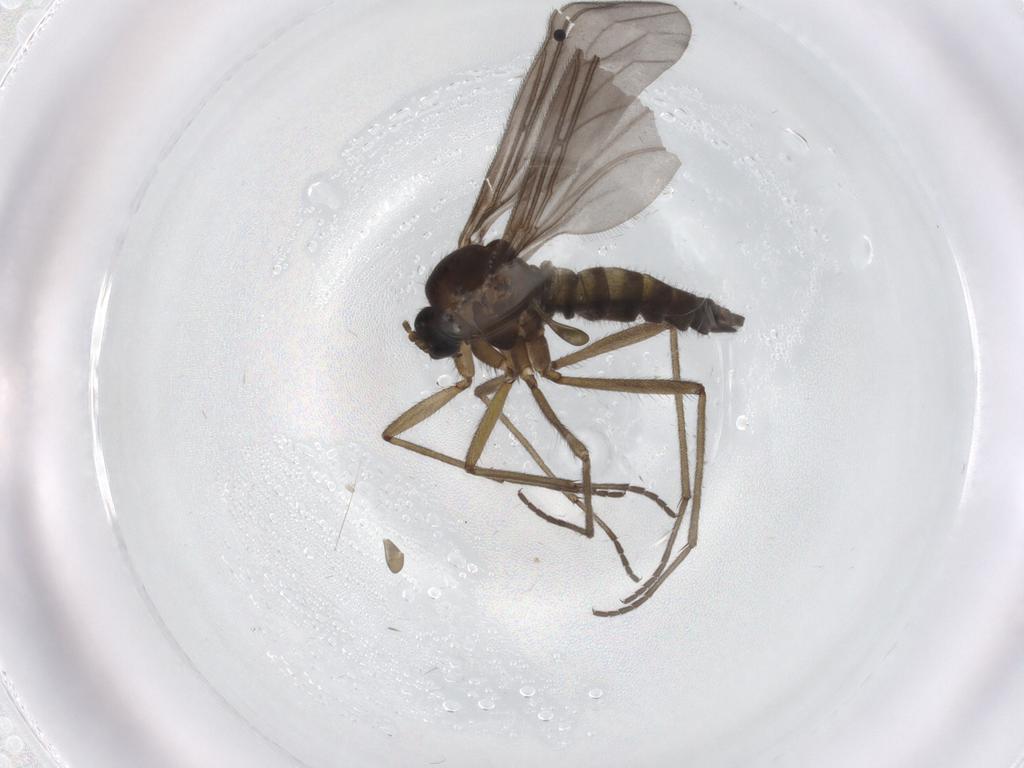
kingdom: Animalia
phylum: Arthropoda
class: Insecta
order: Diptera
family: Sciaridae
